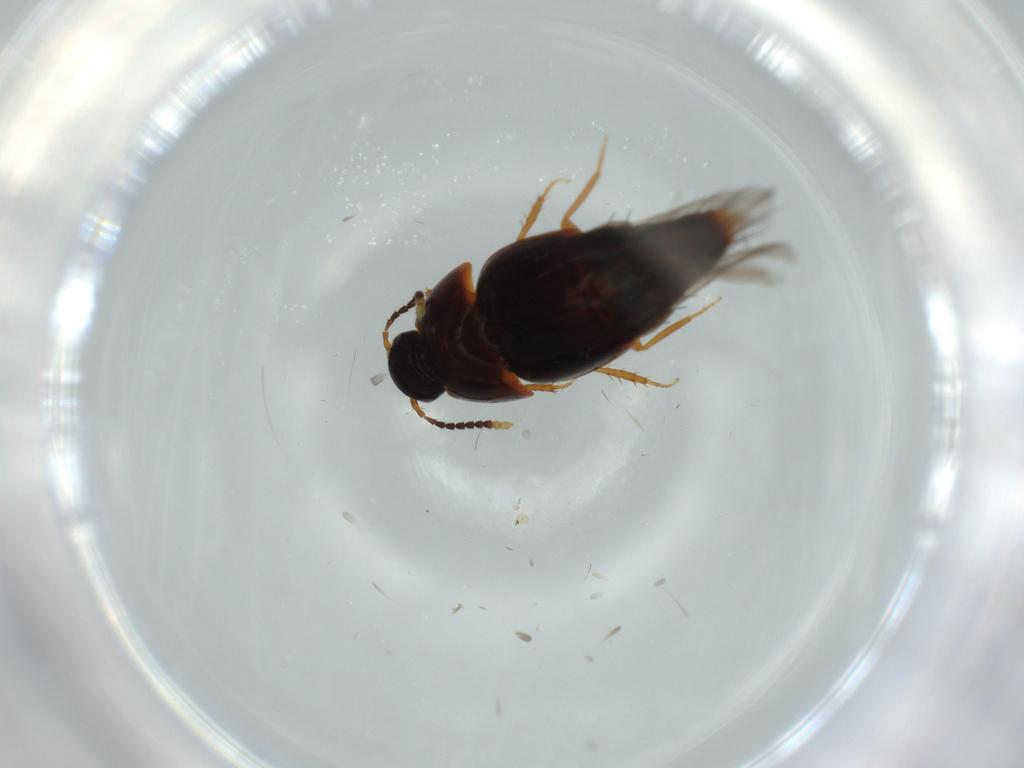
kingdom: Animalia
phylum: Arthropoda
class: Insecta
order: Coleoptera
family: Staphylinidae
